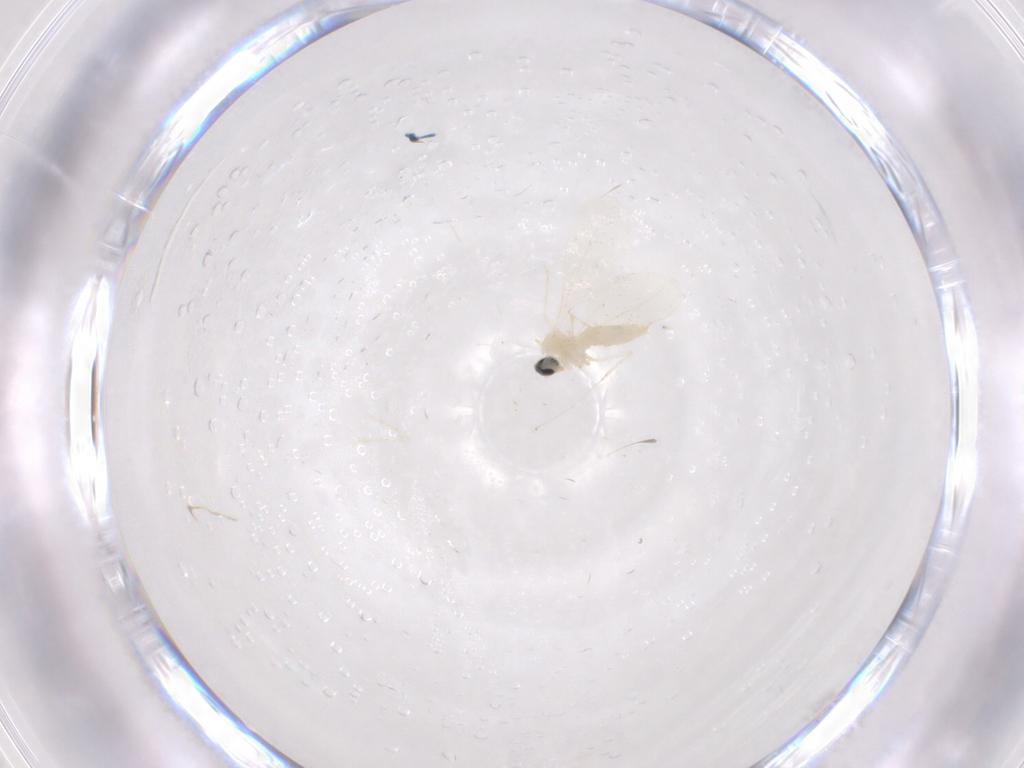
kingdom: Animalia
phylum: Arthropoda
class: Insecta
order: Diptera
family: Cecidomyiidae
